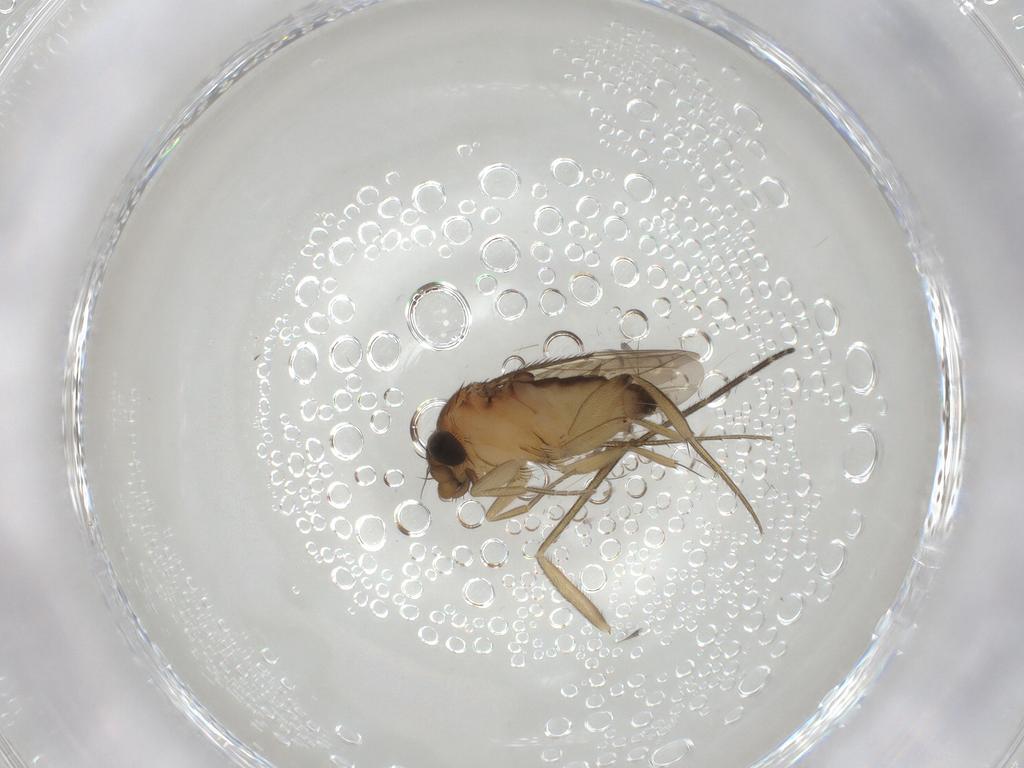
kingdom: Animalia
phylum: Arthropoda
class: Insecta
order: Diptera
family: Phoridae
